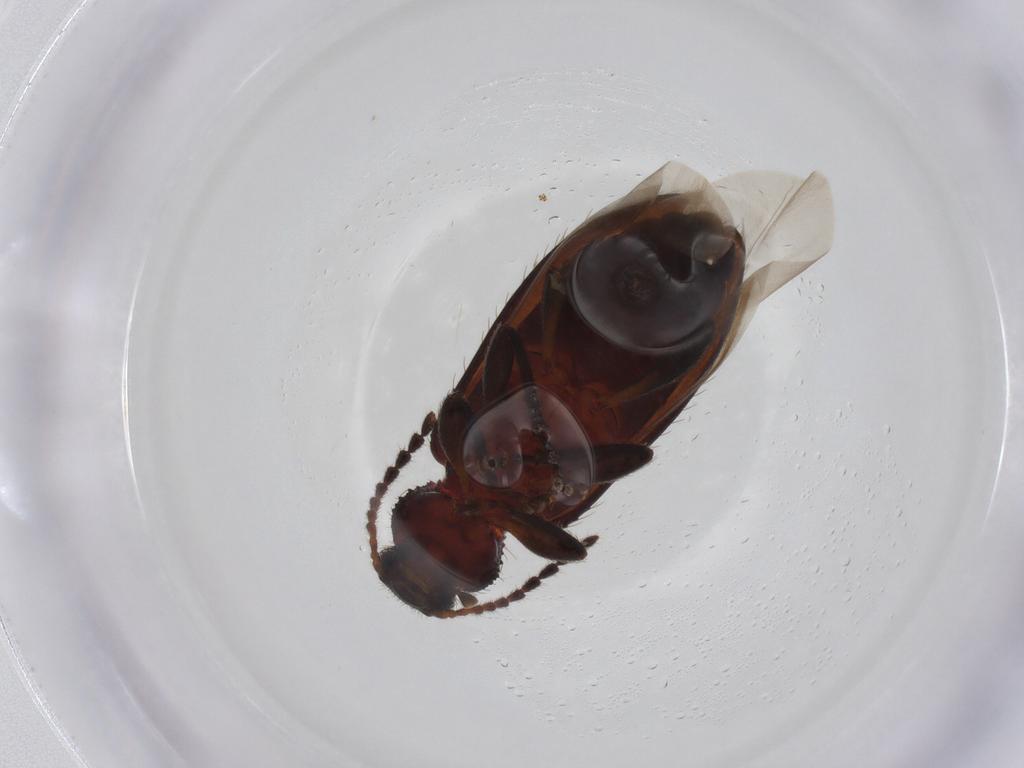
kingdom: Animalia
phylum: Arthropoda
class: Insecta
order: Coleoptera
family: Tenebrionidae
